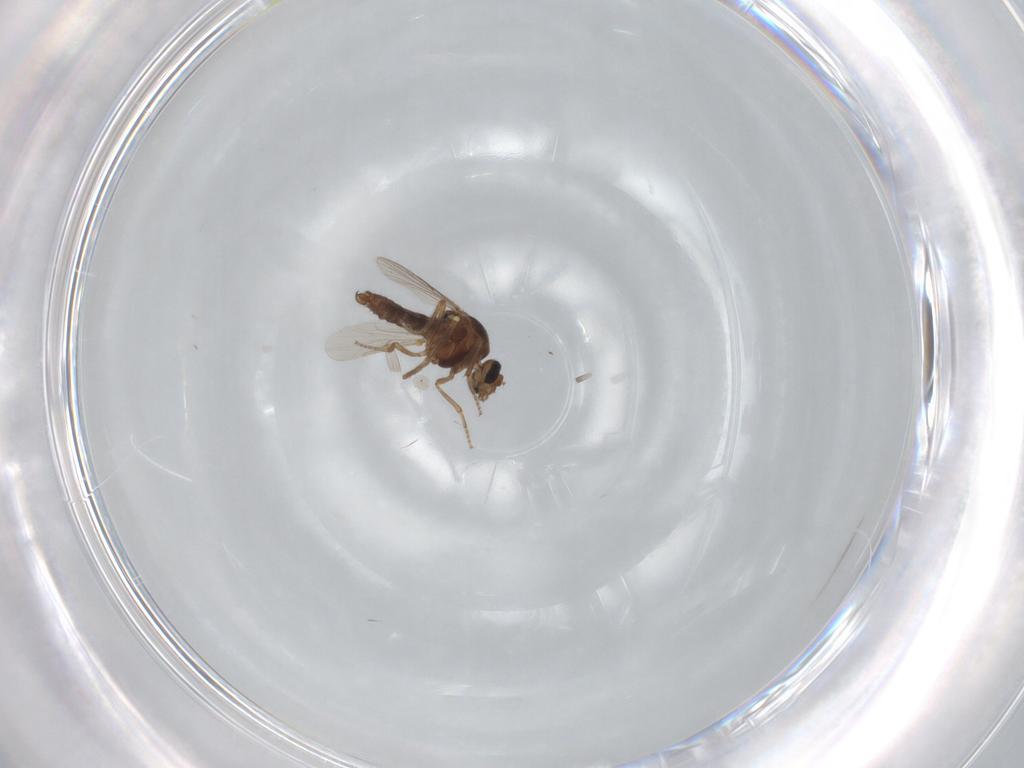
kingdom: Animalia
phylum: Arthropoda
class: Insecta
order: Diptera
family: Ceratopogonidae
